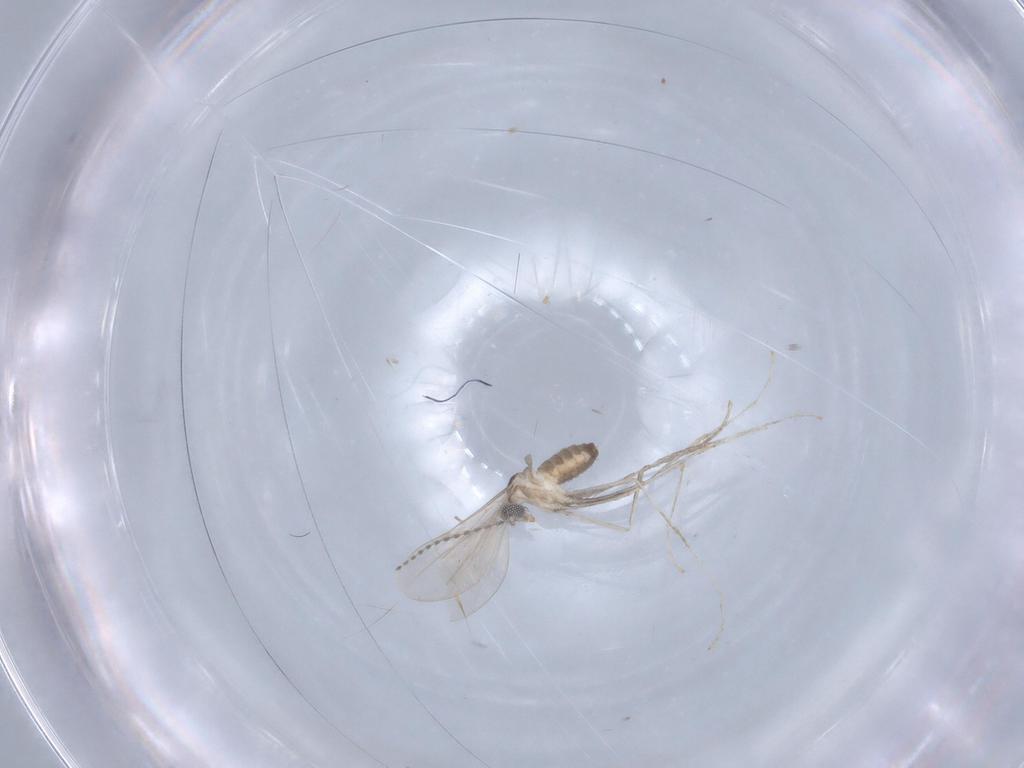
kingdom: Animalia
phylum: Arthropoda
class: Insecta
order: Diptera
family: Cecidomyiidae
